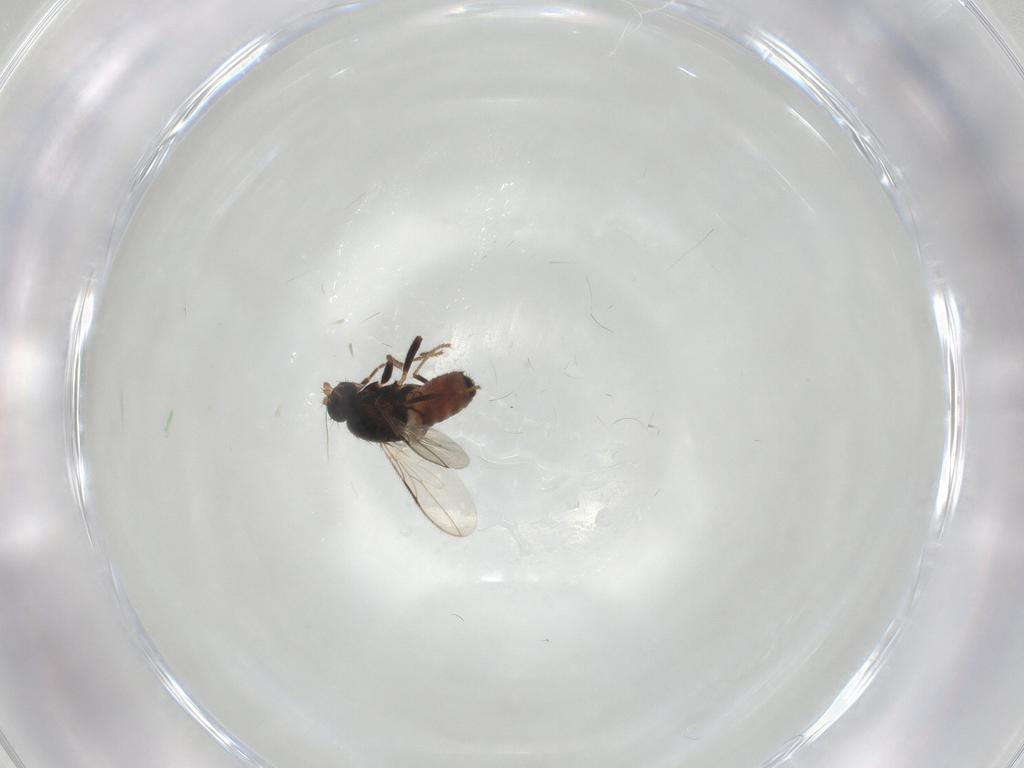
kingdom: Animalia
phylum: Arthropoda
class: Insecta
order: Diptera
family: Sphaeroceridae
